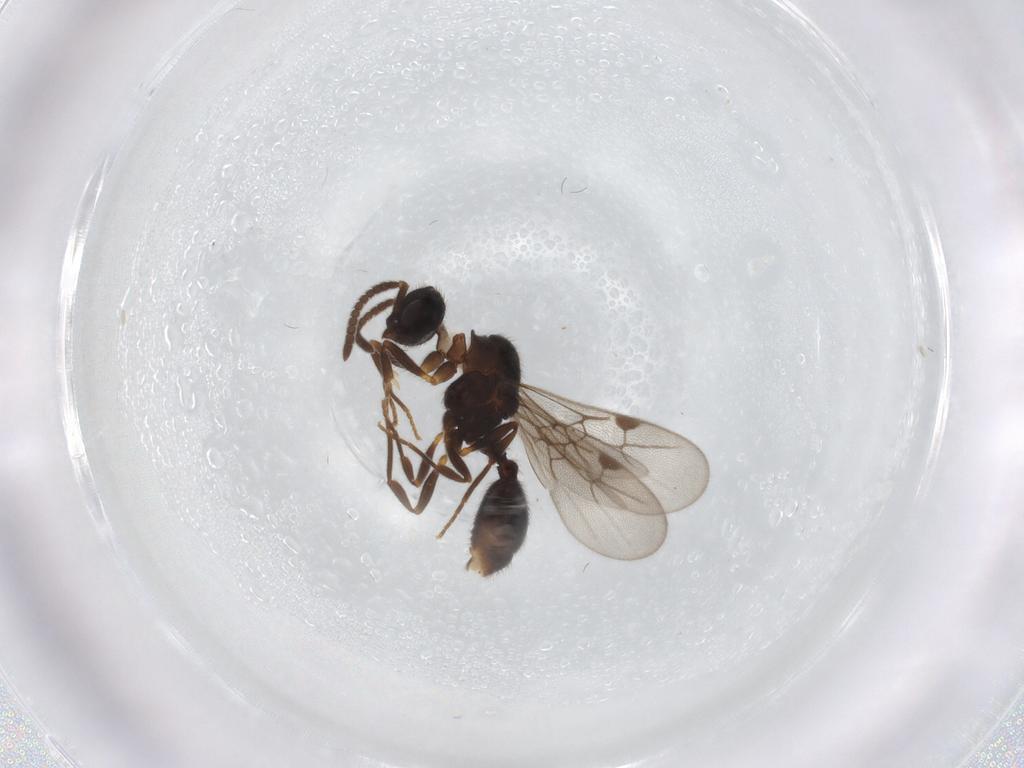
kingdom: Animalia
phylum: Arthropoda
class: Insecta
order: Hymenoptera
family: Formicidae
